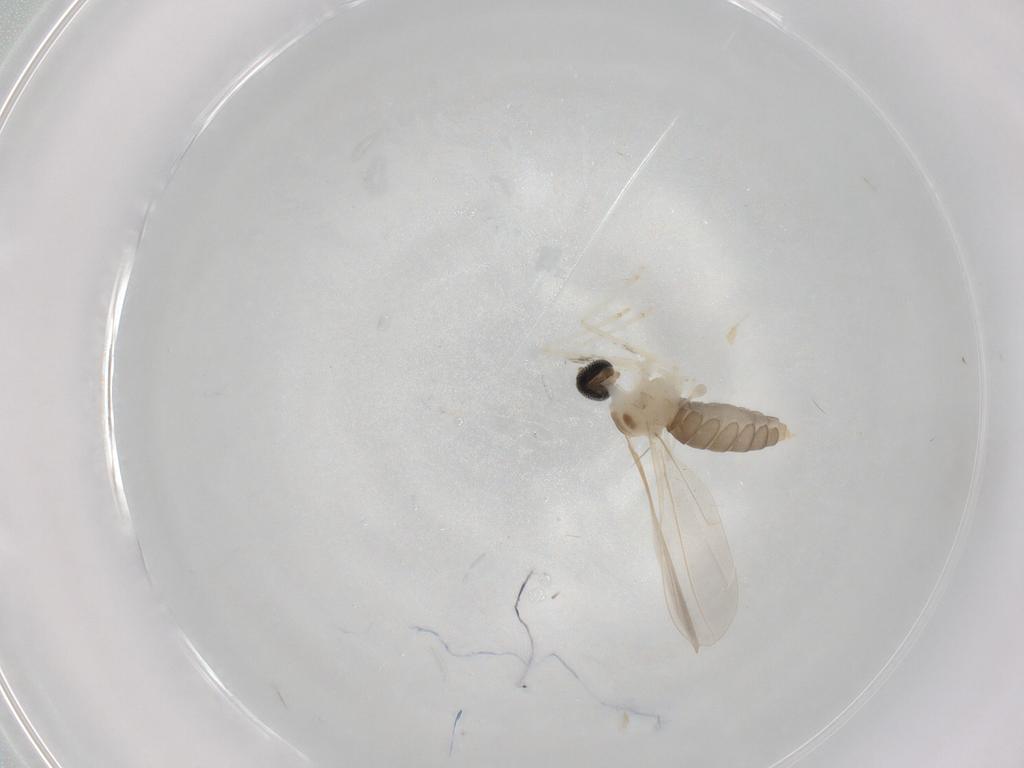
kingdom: Animalia
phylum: Arthropoda
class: Insecta
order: Diptera
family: Cecidomyiidae
